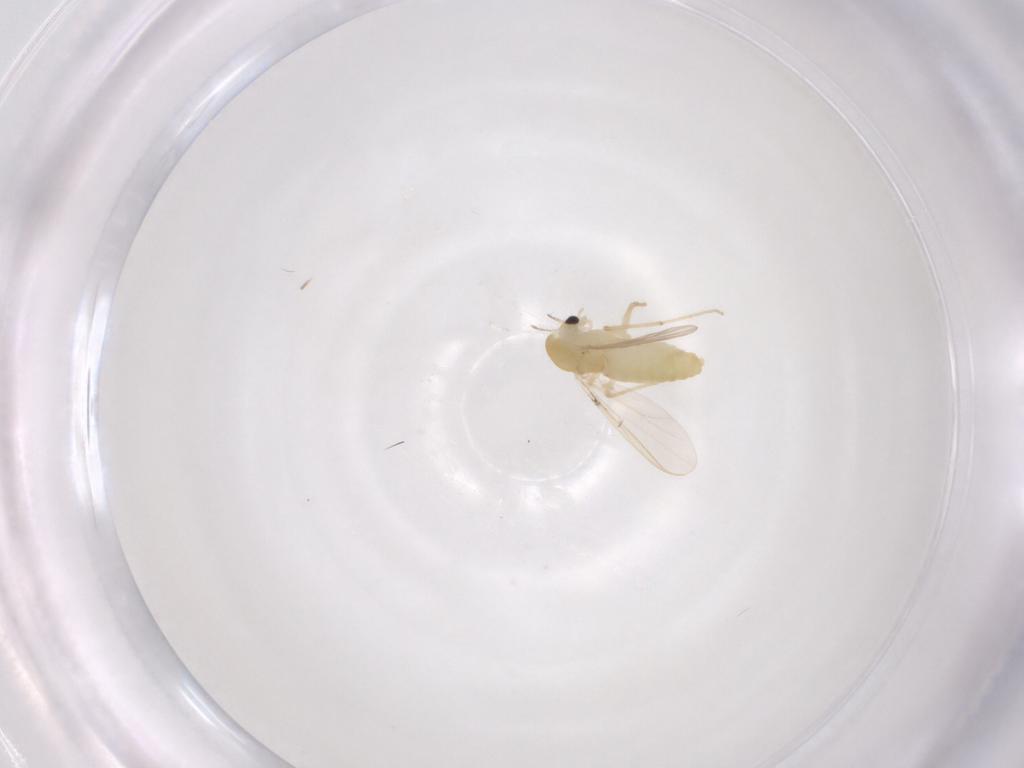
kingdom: Animalia
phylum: Arthropoda
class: Insecta
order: Diptera
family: Chironomidae
